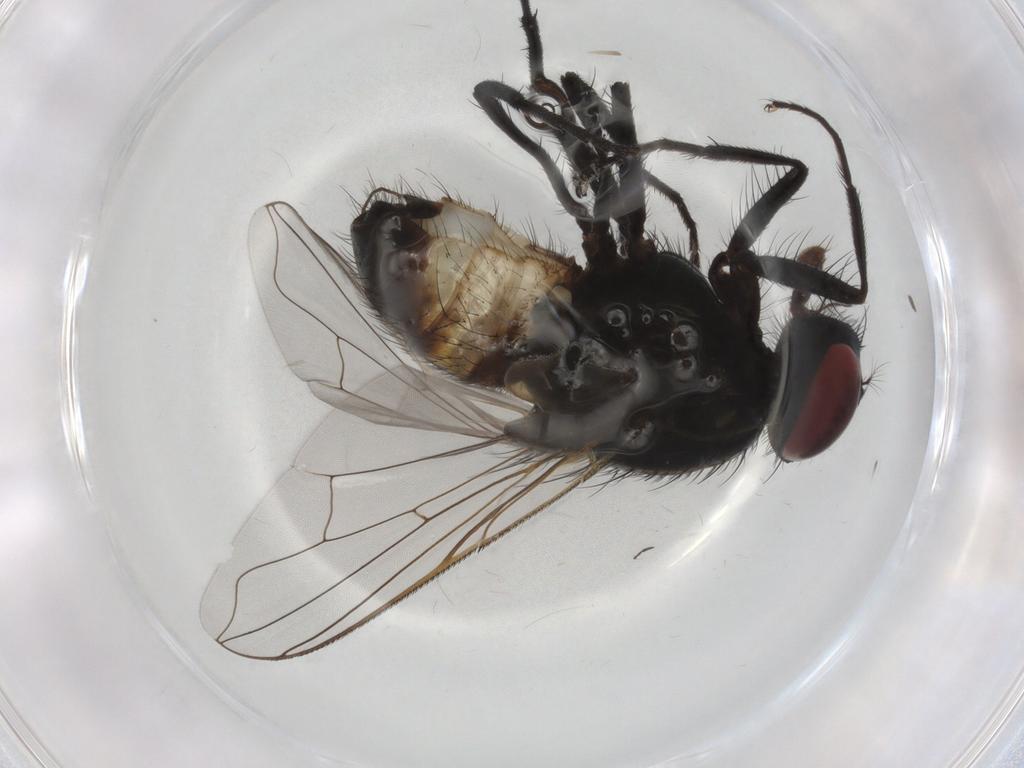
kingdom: Animalia
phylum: Arthropoda
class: Insecta
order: Diptera
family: Muscidae
